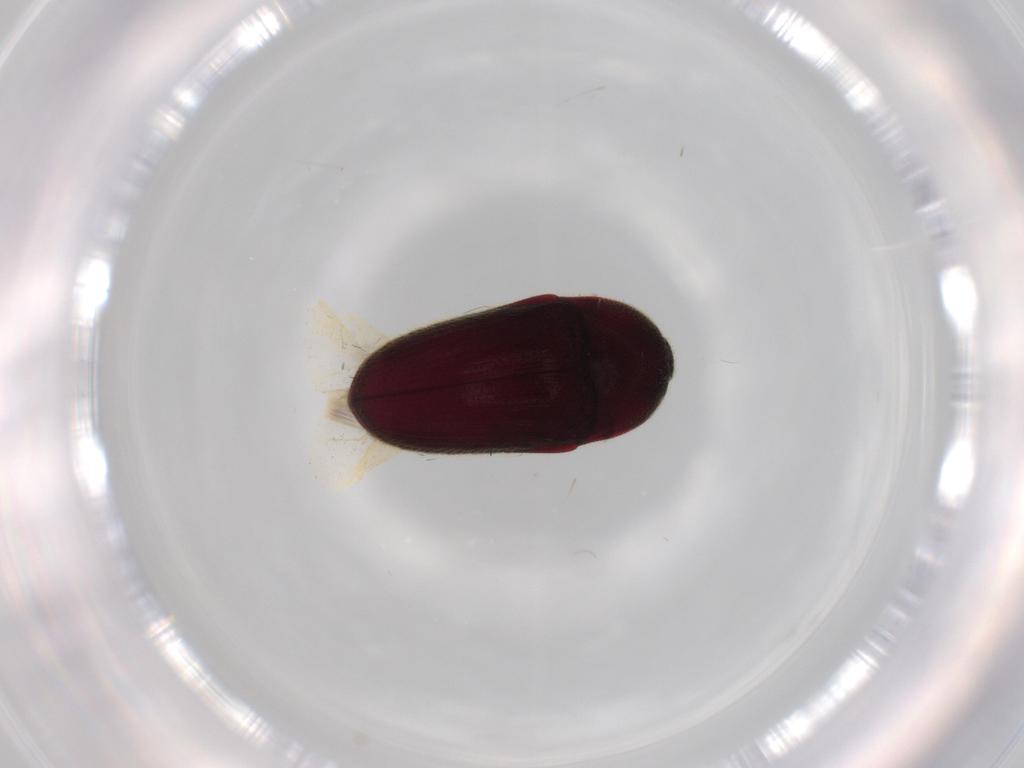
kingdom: Animalia
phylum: Arthropoda
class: Insecta
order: Coleoptera
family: Throscidae
